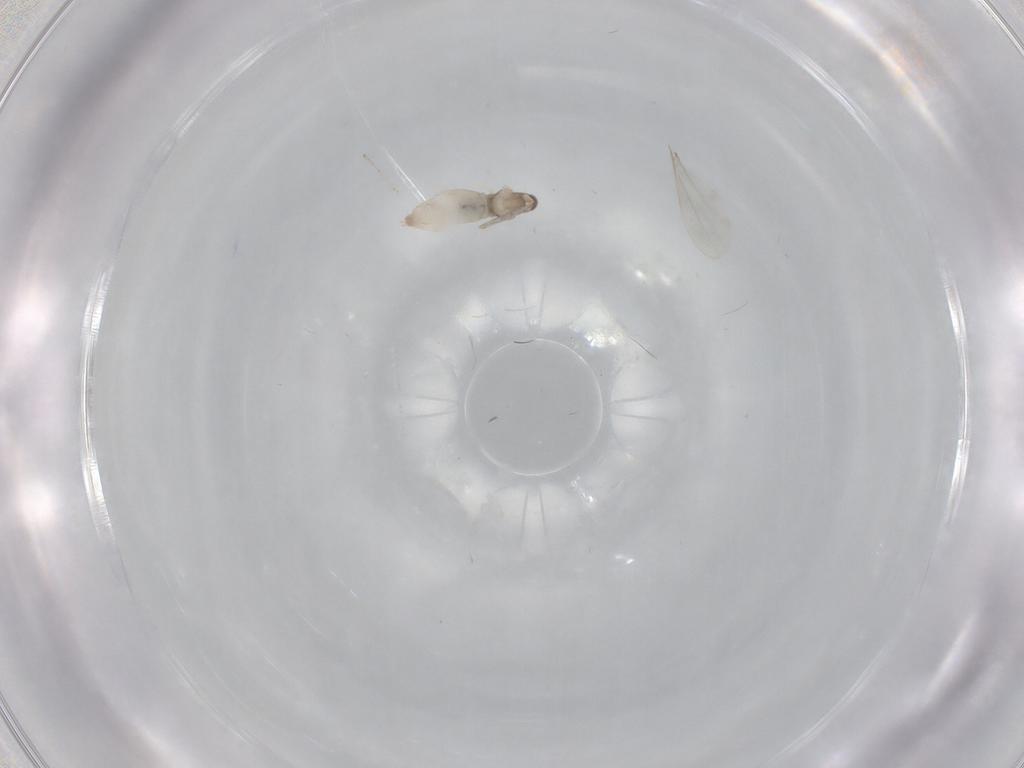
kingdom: Animalia
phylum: Arthropoda
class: Insecta
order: Diptera
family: Cecidomyiidae
